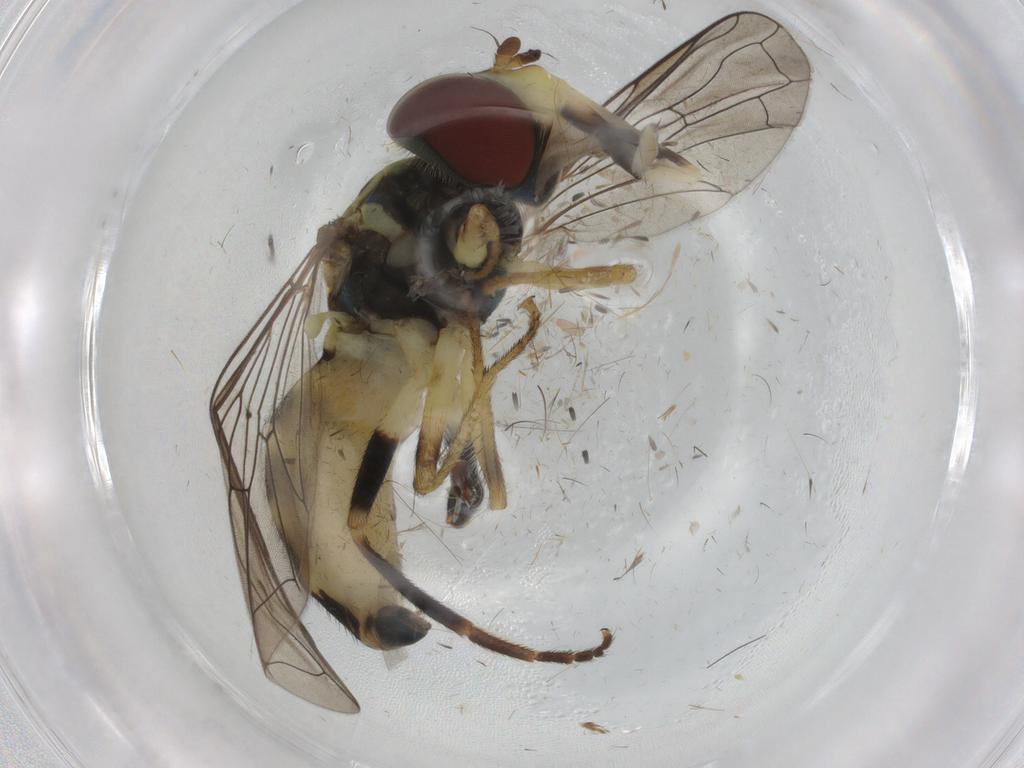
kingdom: Animalia
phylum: Arthropoda
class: Insecta
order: Diptera
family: Syrphidae
